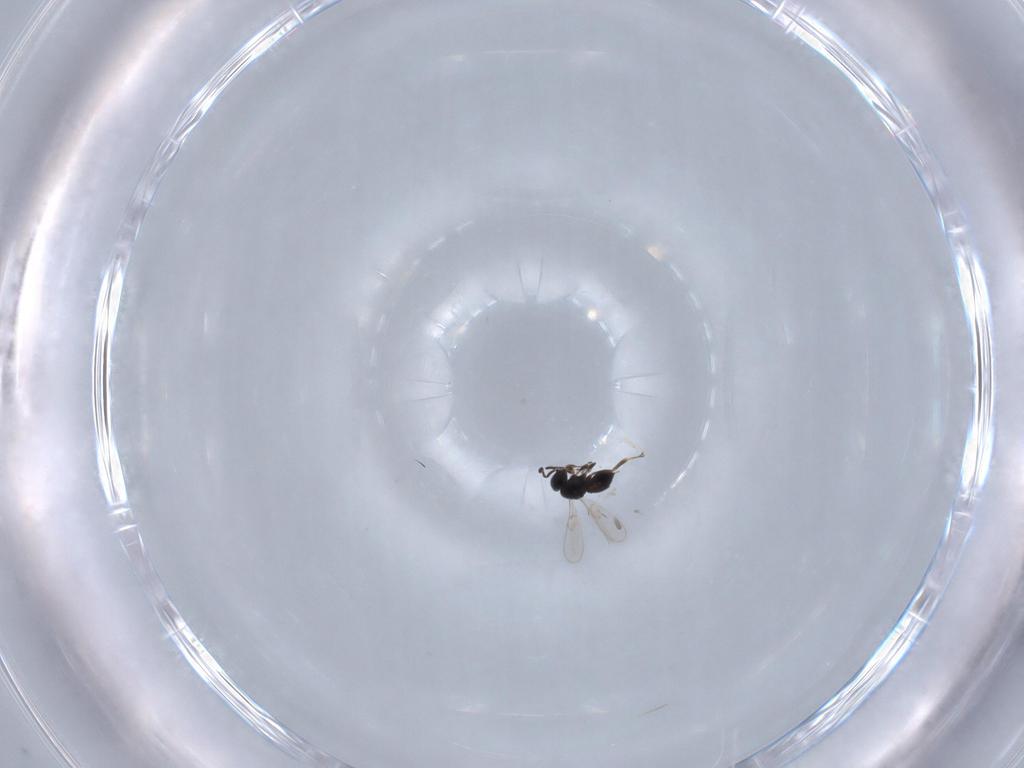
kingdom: Animalia
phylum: Arthropoda
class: Insecta
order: Hymenoptera
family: Scelionidae
